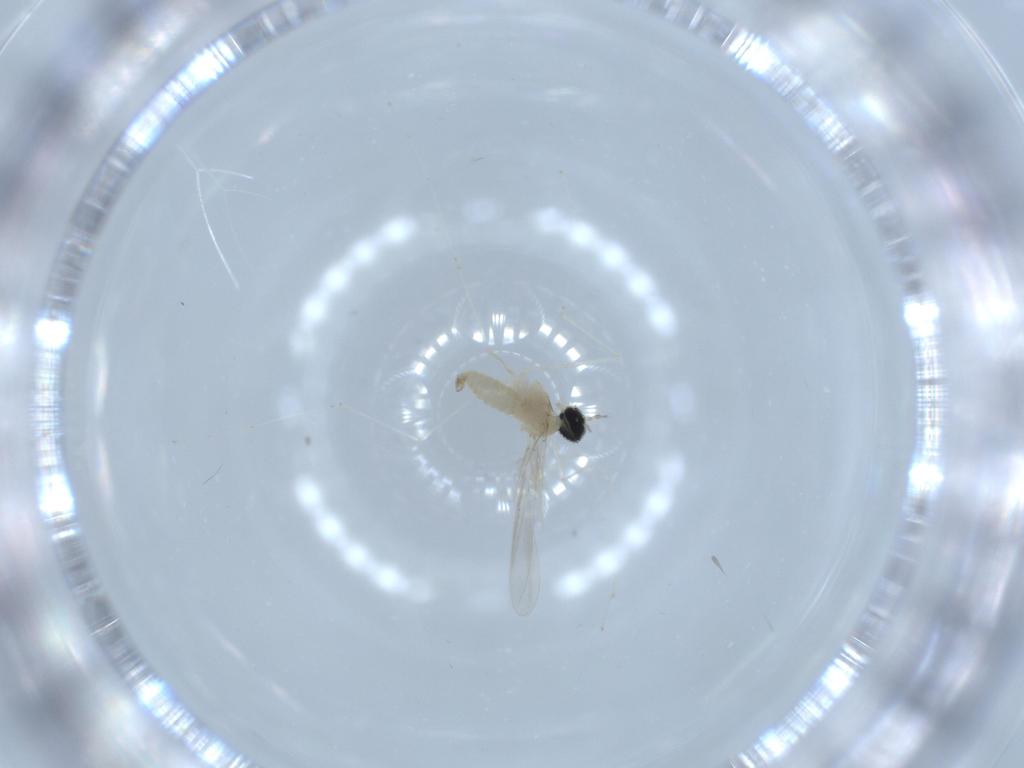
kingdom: Animalia
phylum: Arthropoda
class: Insecta
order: Diptera
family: Cecidomyiidae
